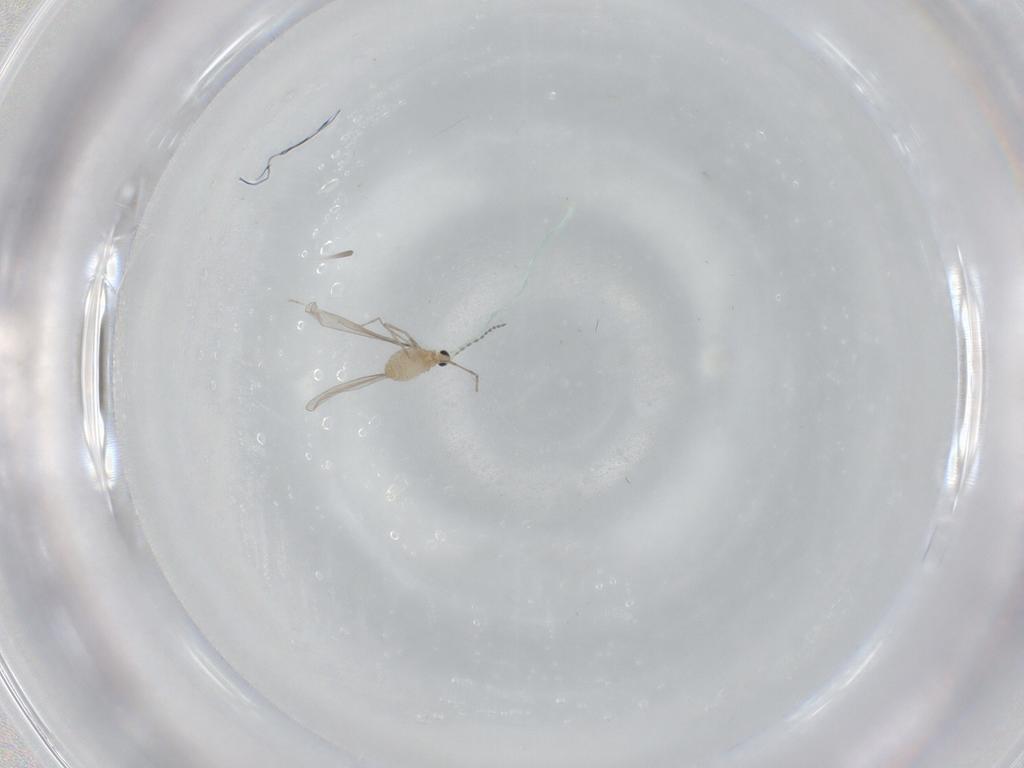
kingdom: Animalia
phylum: Arthropoda
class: Insecta
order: Diptera
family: Cecidomyiidae
